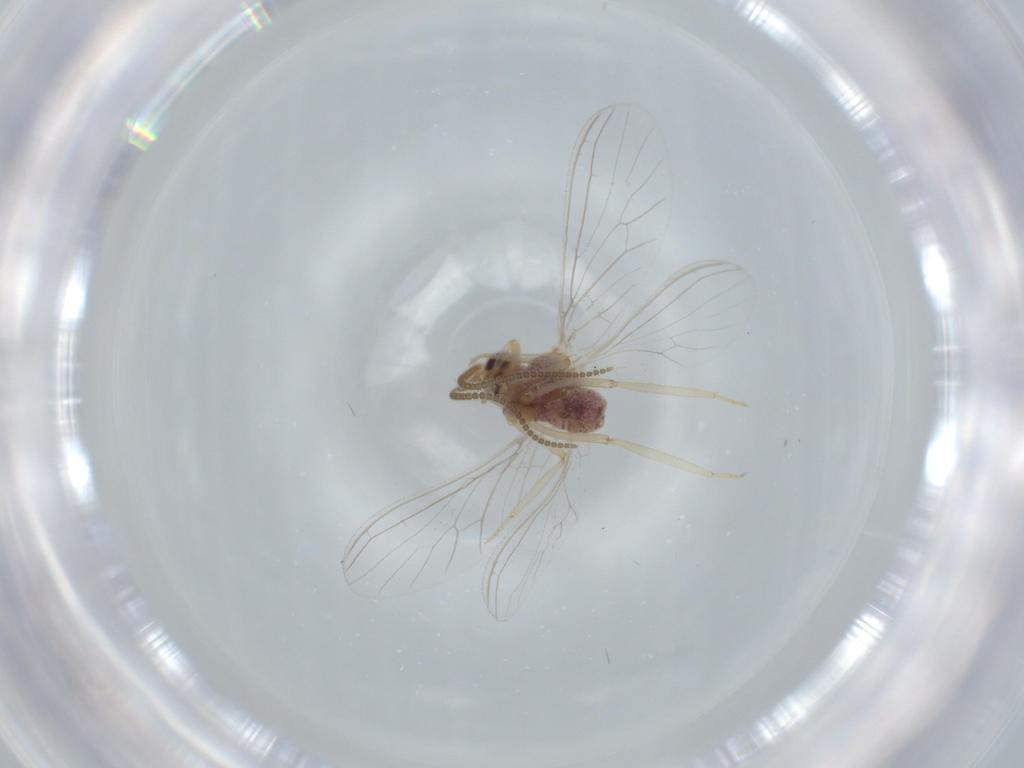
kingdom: Animalia
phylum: Arthropoda
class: Insecta
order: Neuroptera
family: Coniopterygidae
